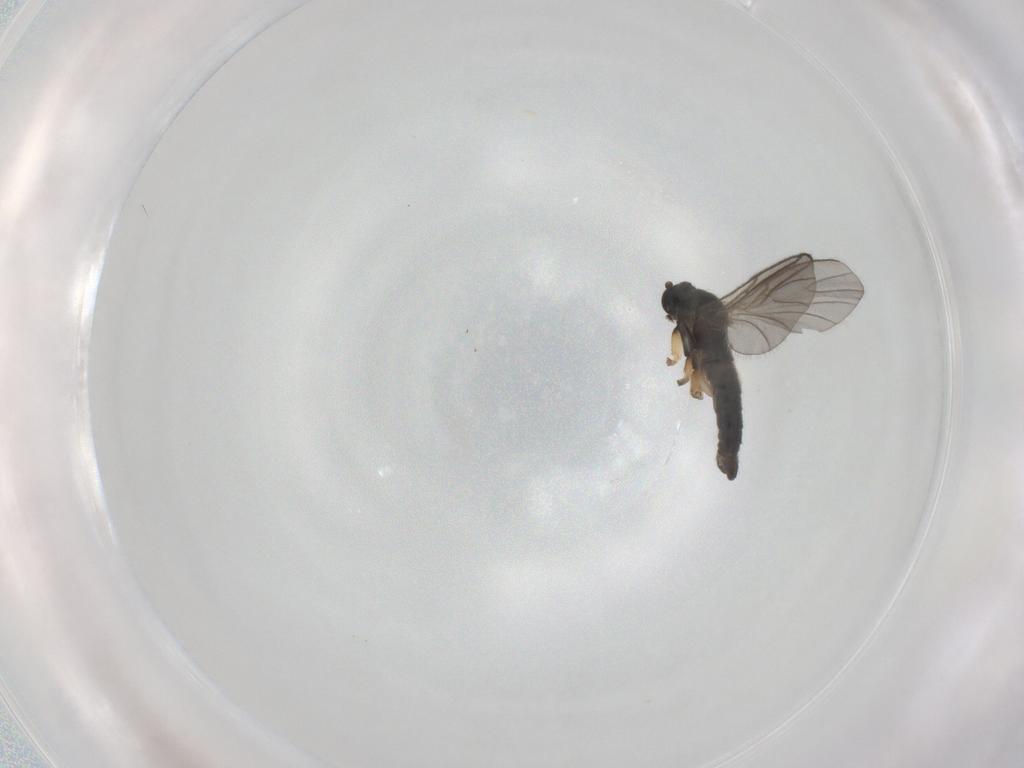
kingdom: Animalia
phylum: Arthropoda
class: Insecta
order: Diptera
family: Sciaridae
